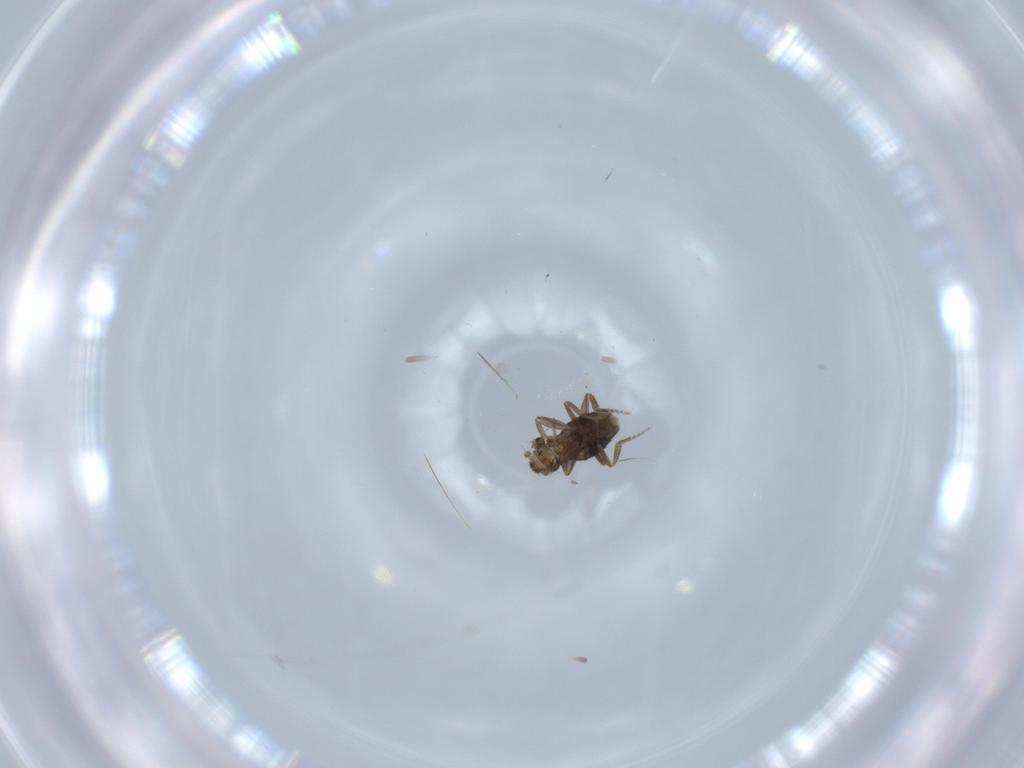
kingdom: Animalia
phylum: Arthropoda
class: Insecta
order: Diptera
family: Phoridae
